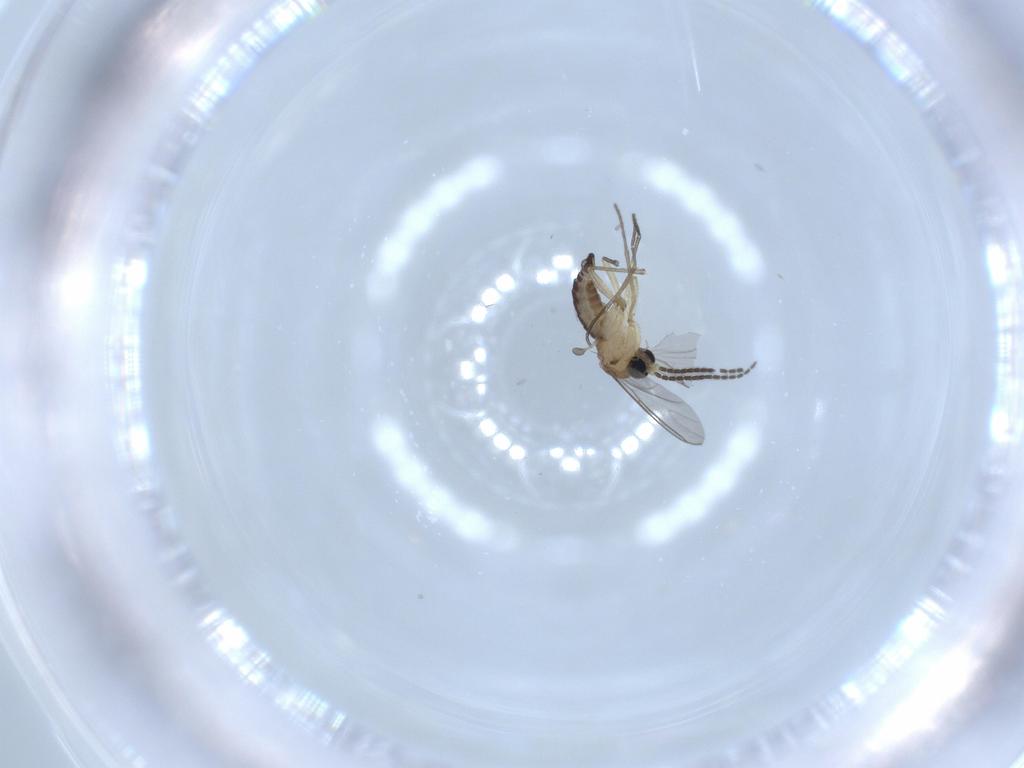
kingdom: Animalia
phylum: Arthropoda
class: Insecta
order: Diptera
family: Sciaridae
